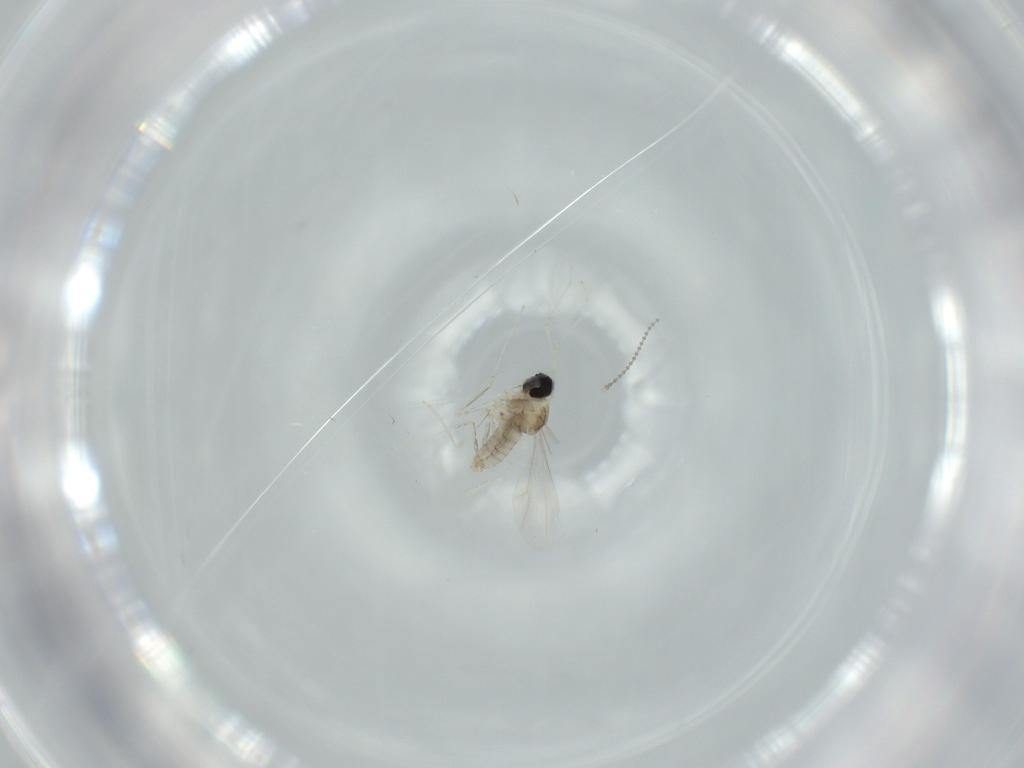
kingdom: Animalia
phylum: Arthropoda
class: Insecta
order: Diptera
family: Cecidomyiidae
